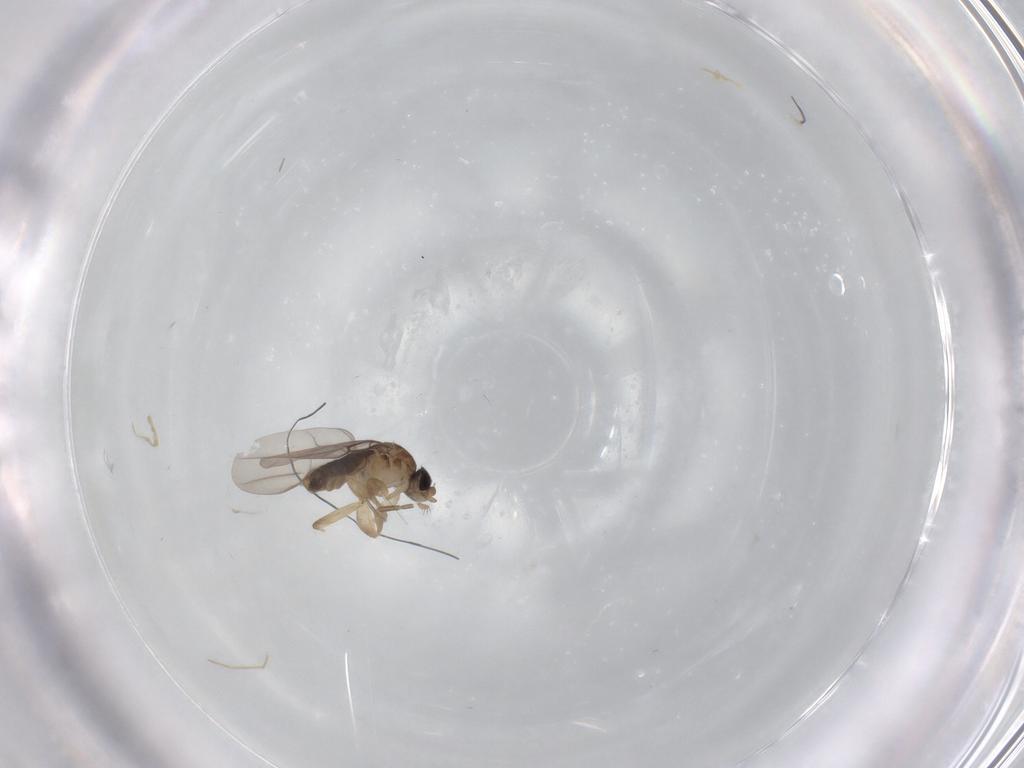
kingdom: Animalia
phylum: Arthropoda
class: Insecta
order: Diptera
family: Phoridae
